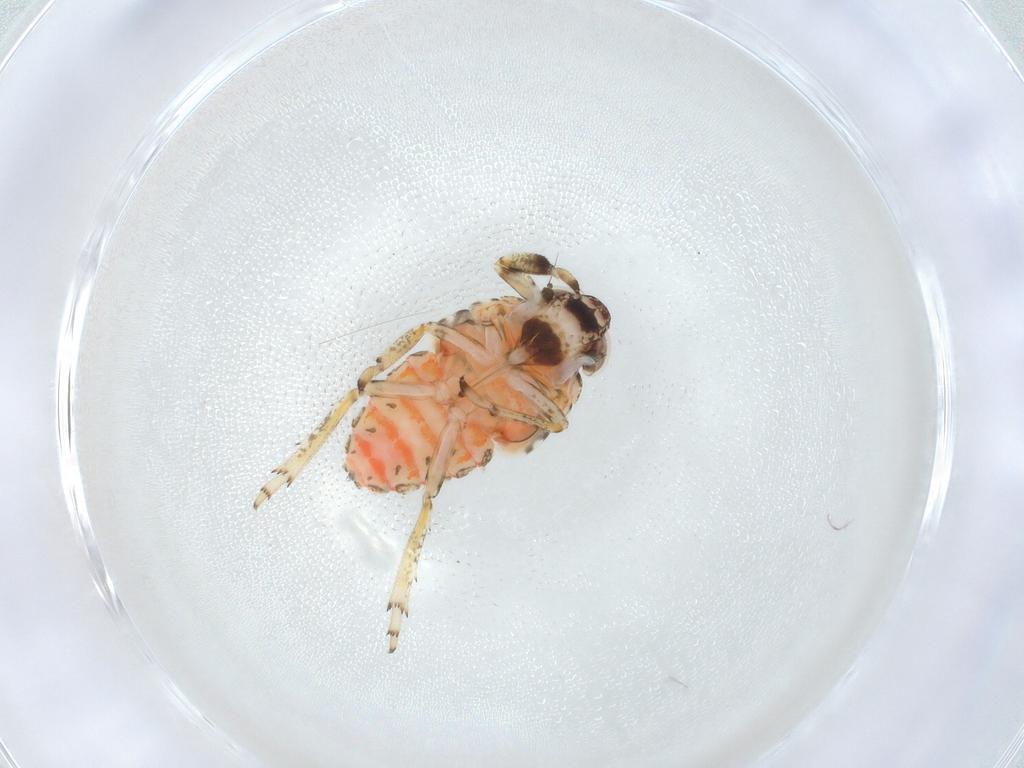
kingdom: Animalia
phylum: Arthropoda
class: Insecta
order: Hemiptera
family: Issidae
